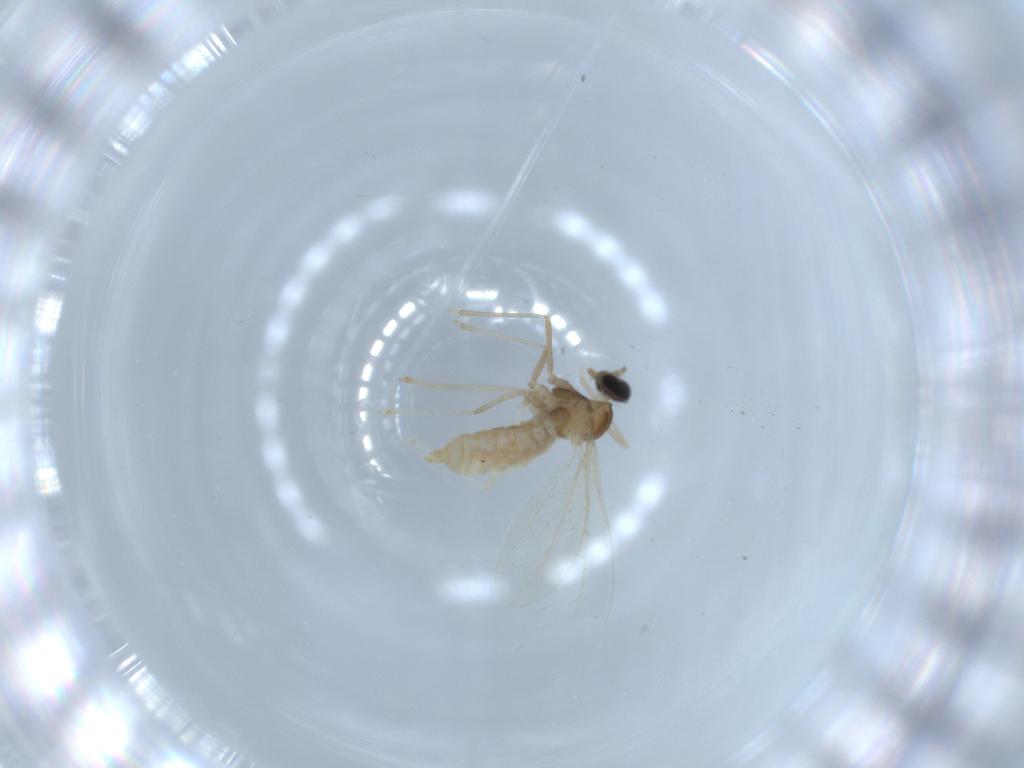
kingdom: Animalia
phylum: Arthropoda
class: Insecta
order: Diptera
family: Cecidomyiidae
